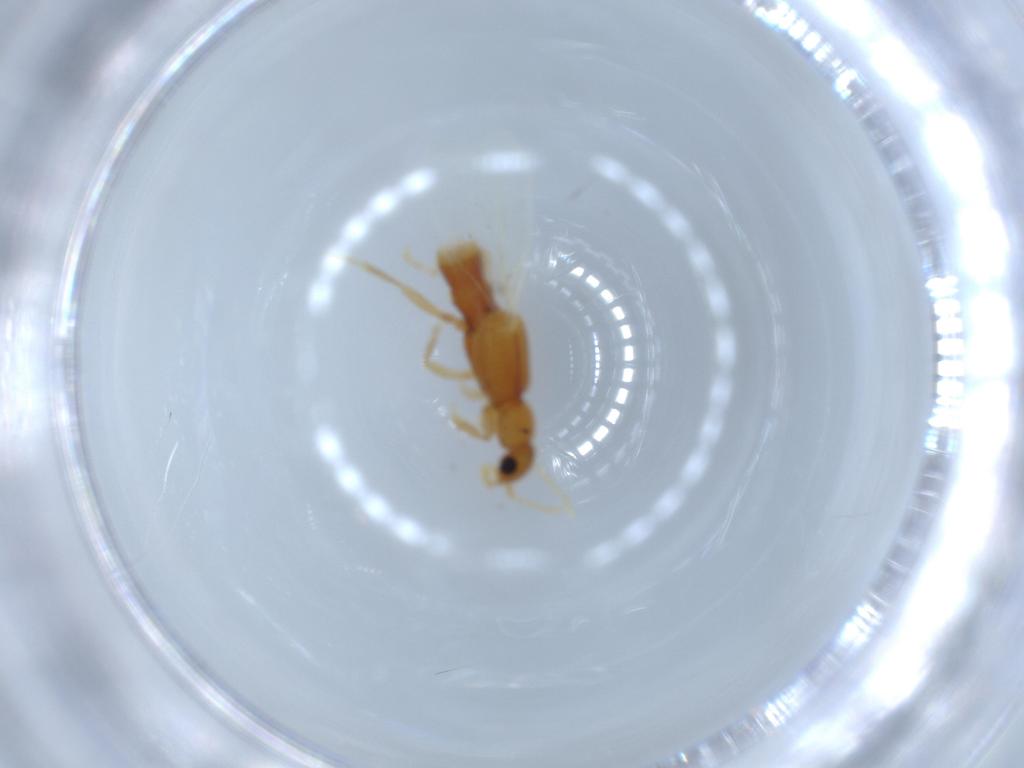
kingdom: Animalia
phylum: Arthropoda
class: Insecta
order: Coleoptera
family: Staphylinidae
